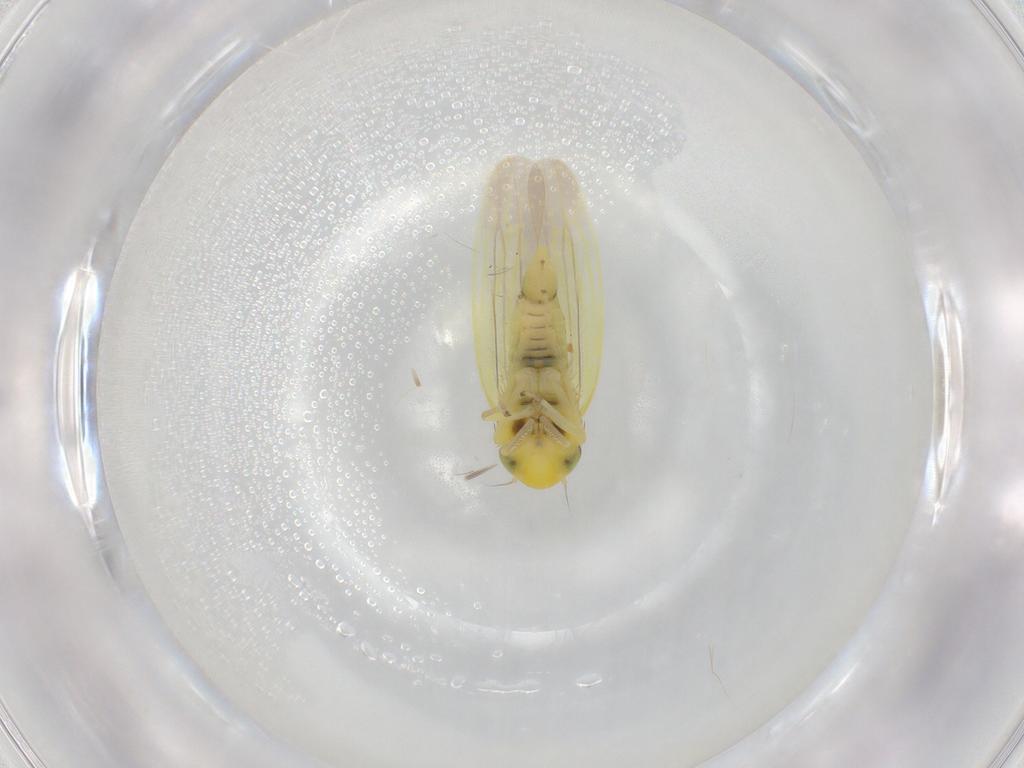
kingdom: Animalia
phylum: Arthropoda
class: Insecta
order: Hemiptera
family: Cicadellidae
